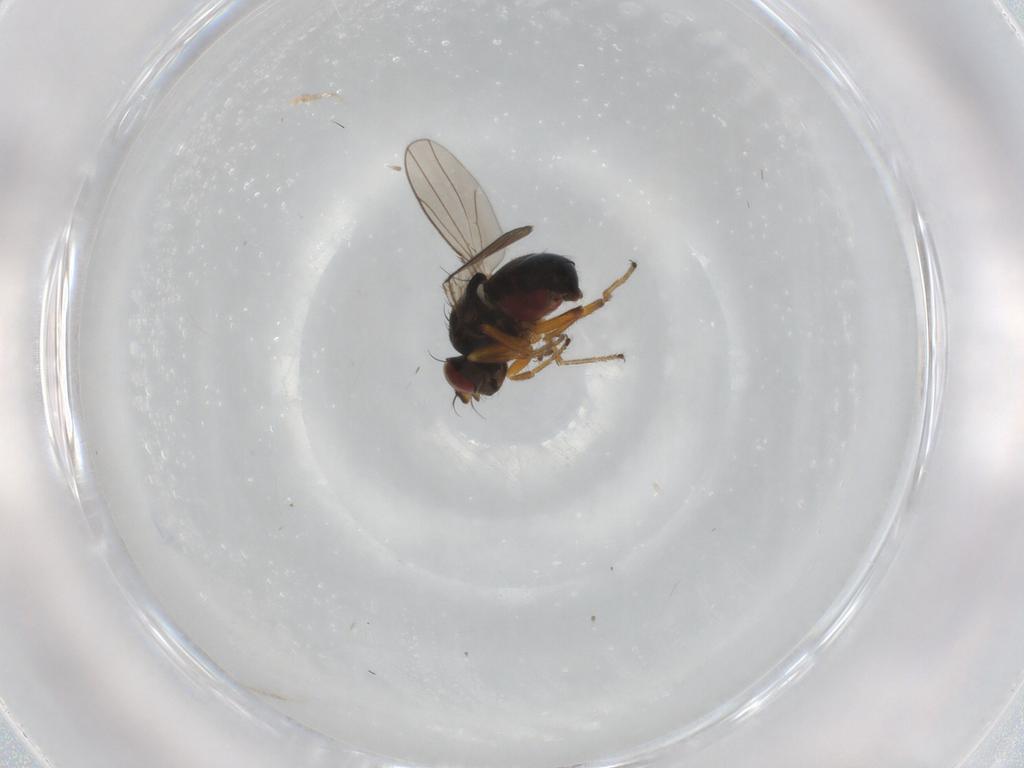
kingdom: Animalia
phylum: Arthropoda
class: Insecta
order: Diptera
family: Ephydridae
